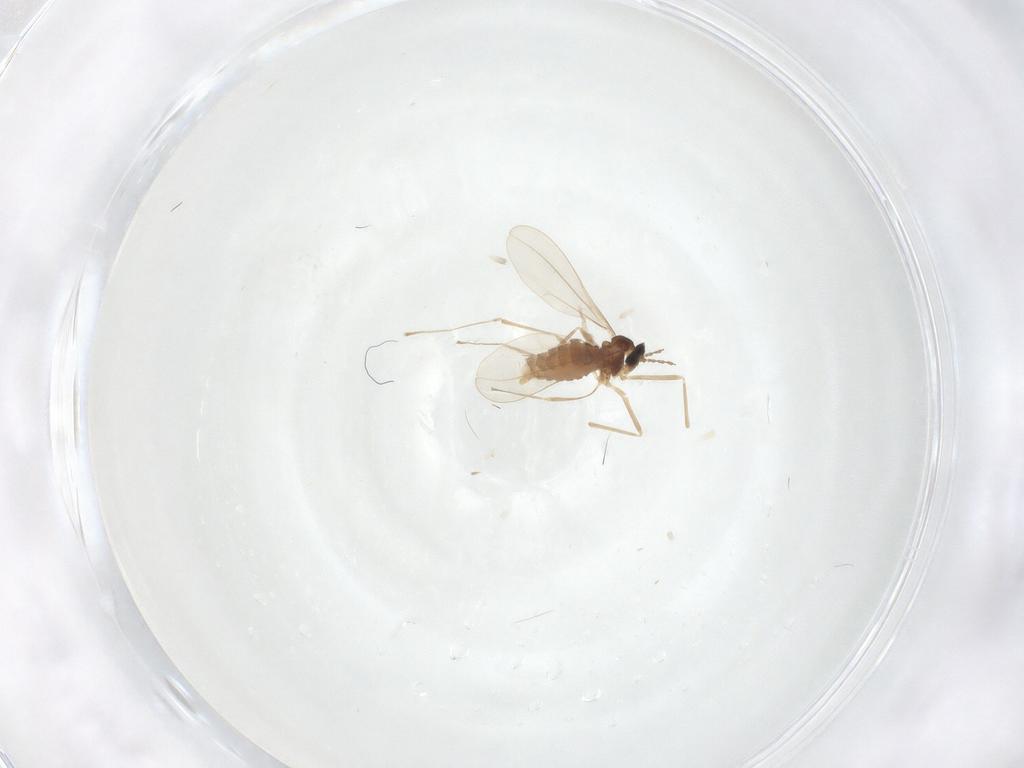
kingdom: Animalia
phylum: Arthropoda
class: Insecta
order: Diptera
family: Cecidomyiidae
